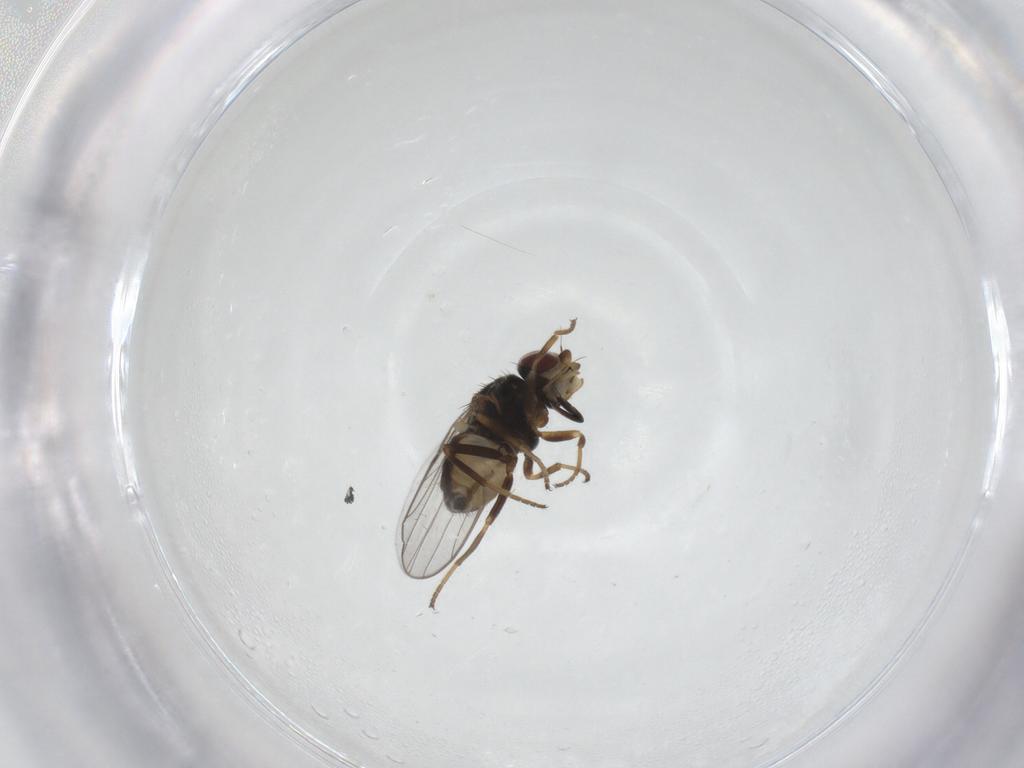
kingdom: Animalia
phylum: Arthropoda
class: Insecta
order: Diptera
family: Chloropidae
